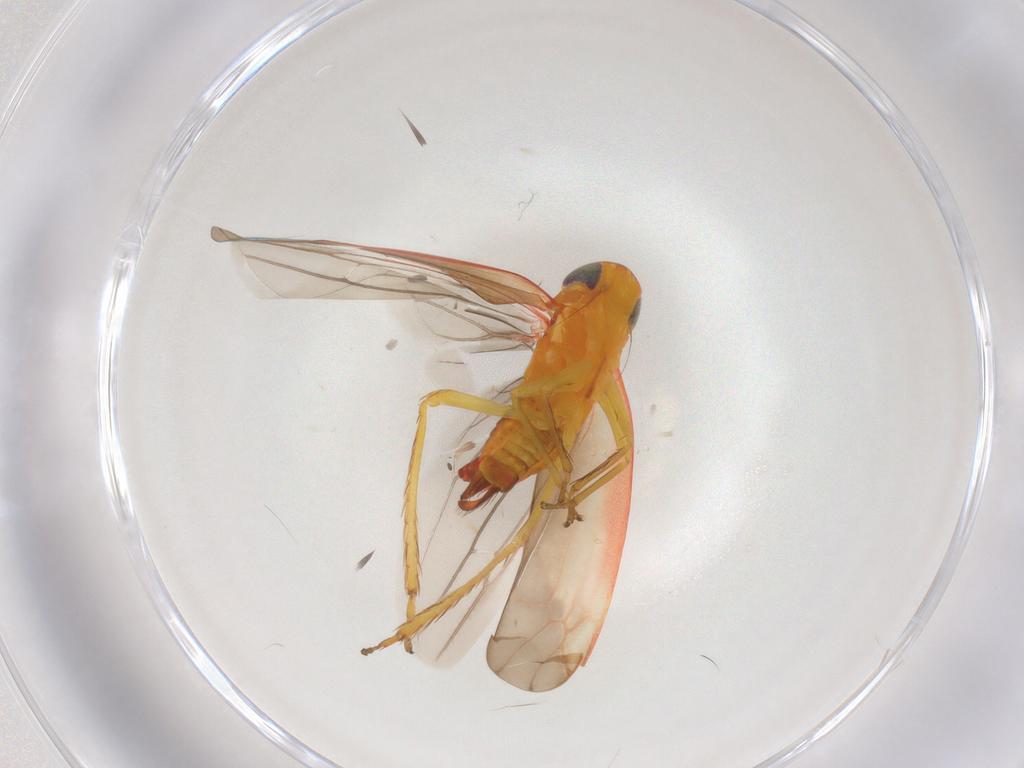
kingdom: Animalia
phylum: Arthropoda
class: Insecta
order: Hemiptera
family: Cicadellidae
